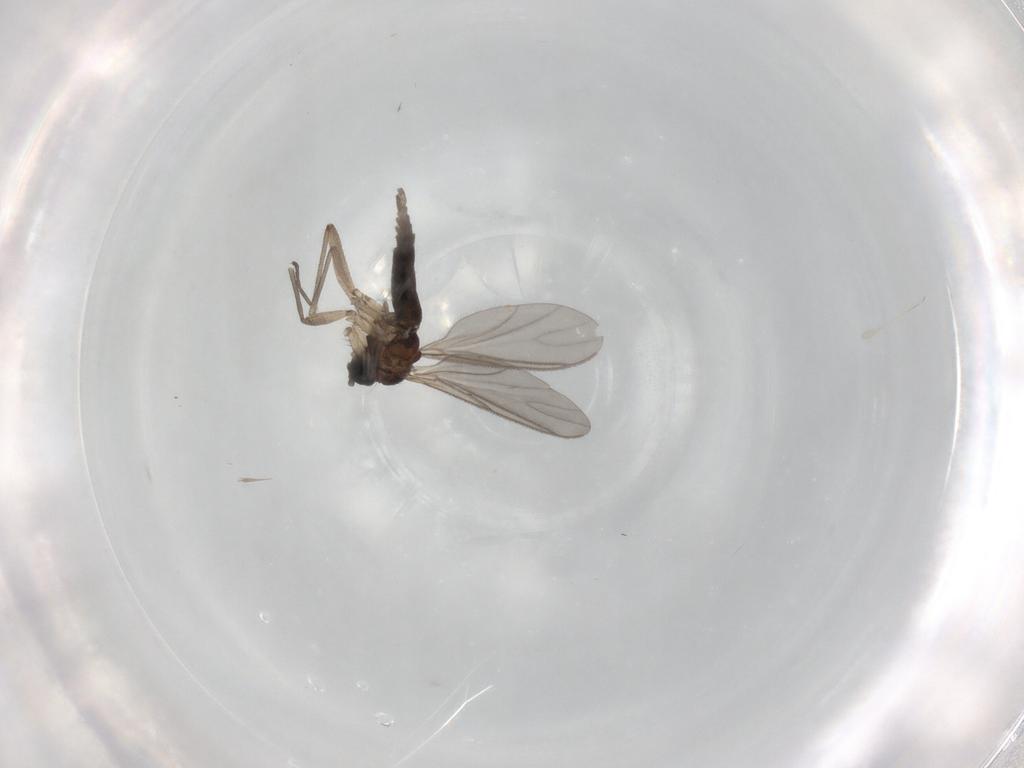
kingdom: Animalia
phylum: Arthropoda
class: Insecta
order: Diptera
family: Sciaridae
